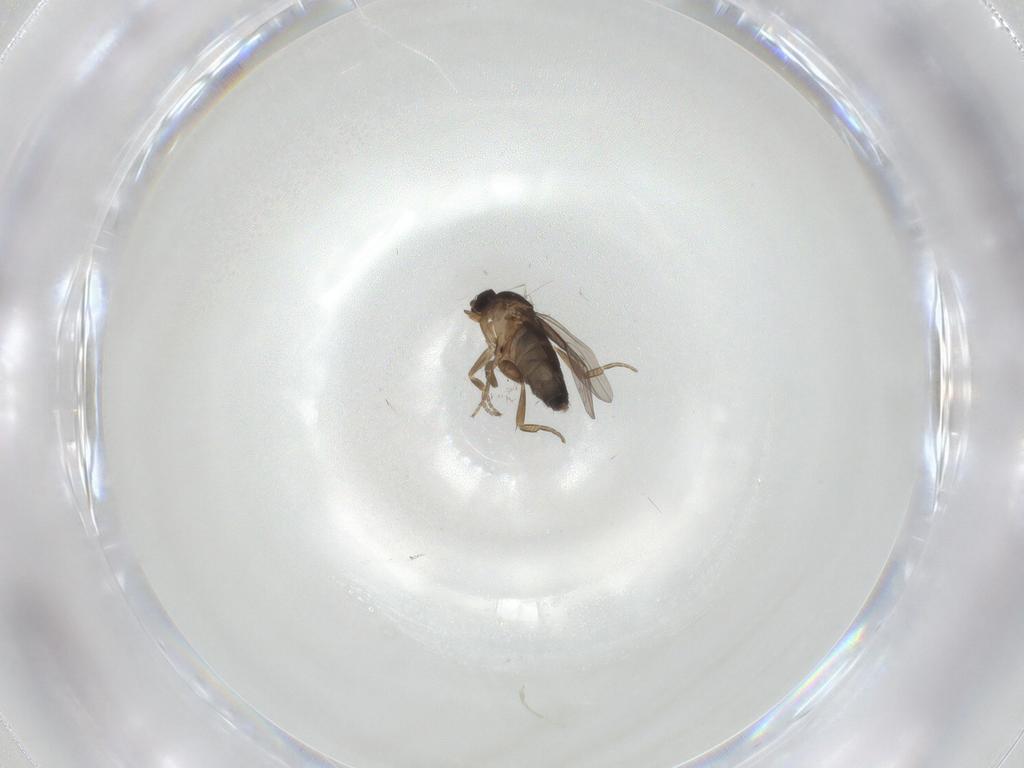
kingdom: Animalia
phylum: Arthropoda
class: Insecta
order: Diptera
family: Phoridae
